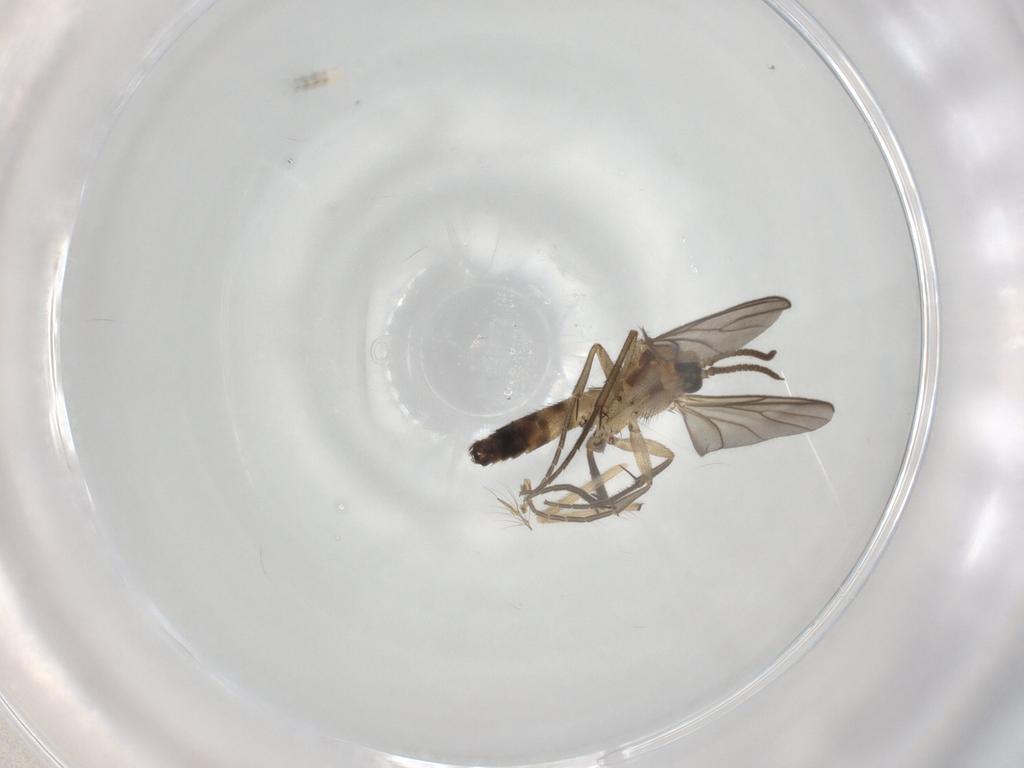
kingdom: Animalia
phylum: Arthropoda
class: Insecta
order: Diptera
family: Mycetophilidae
